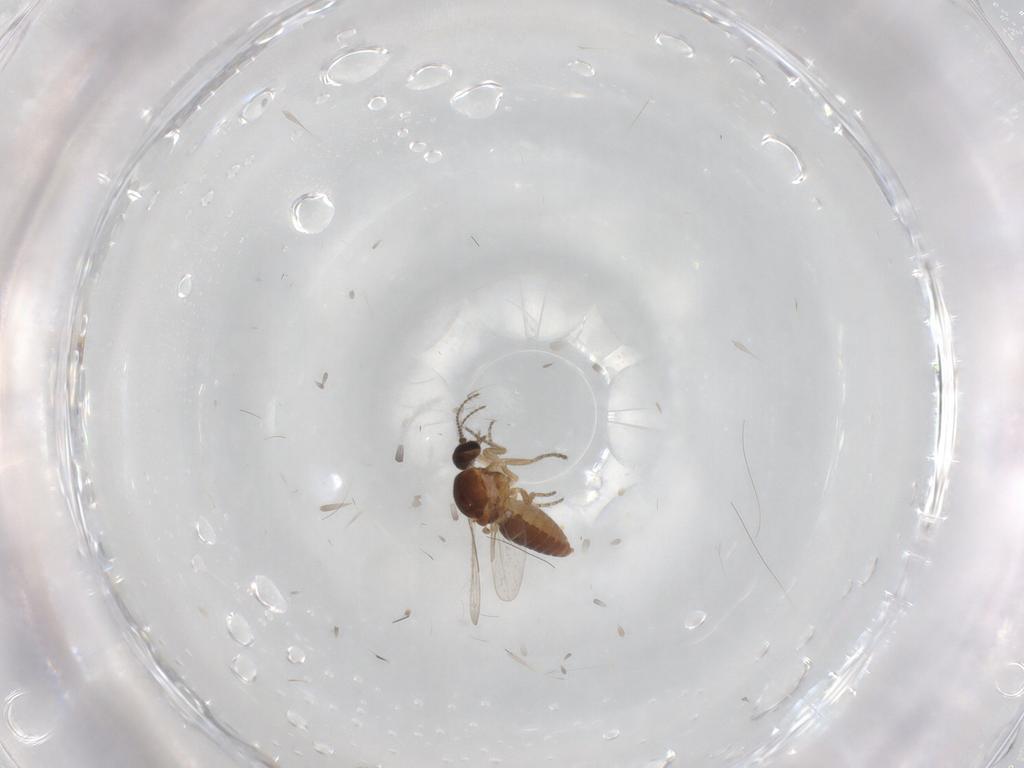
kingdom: Animalia
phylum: Arthropoda
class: Insecta
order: Diptera
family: Ceratopogonidae
